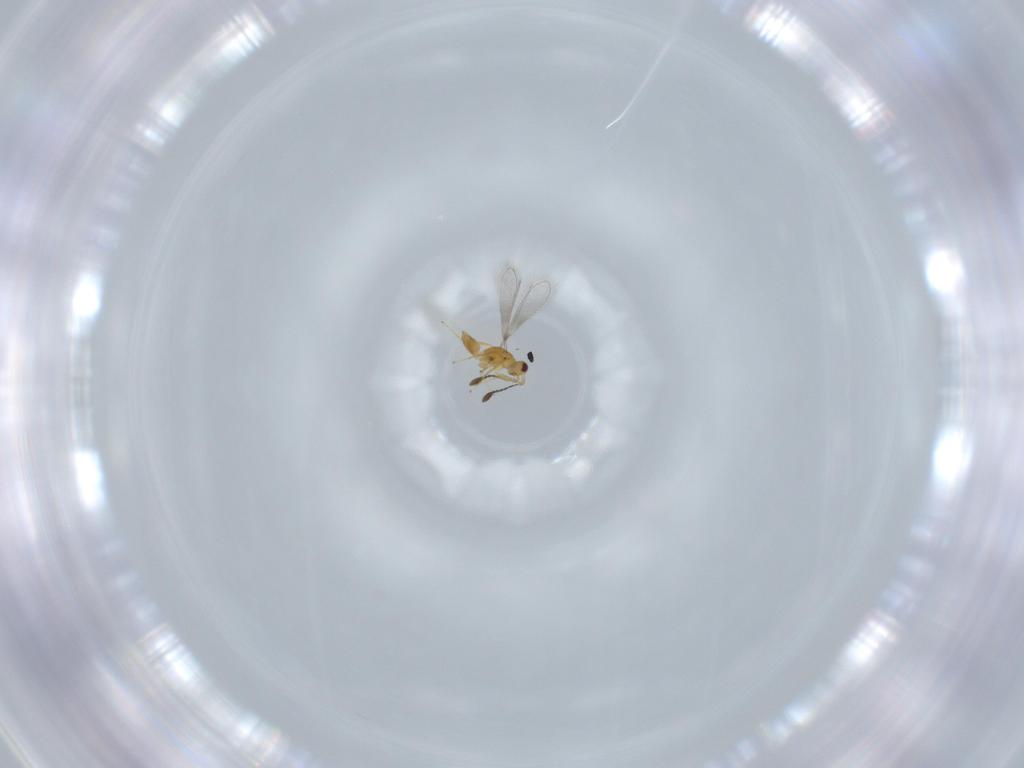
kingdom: Animalia
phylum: Arthropoda
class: Insecta
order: Hymenoptera
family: Mymaridae
